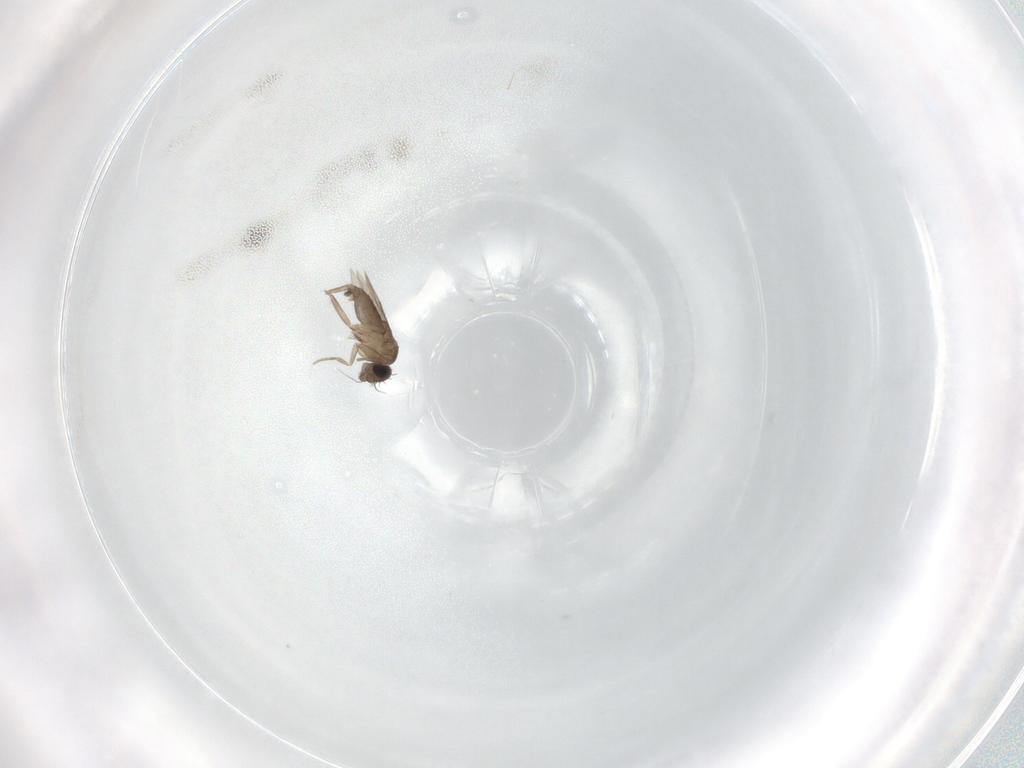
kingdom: Animalia
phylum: Arthropoda
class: Insecta
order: Diptera
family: Phoridae
